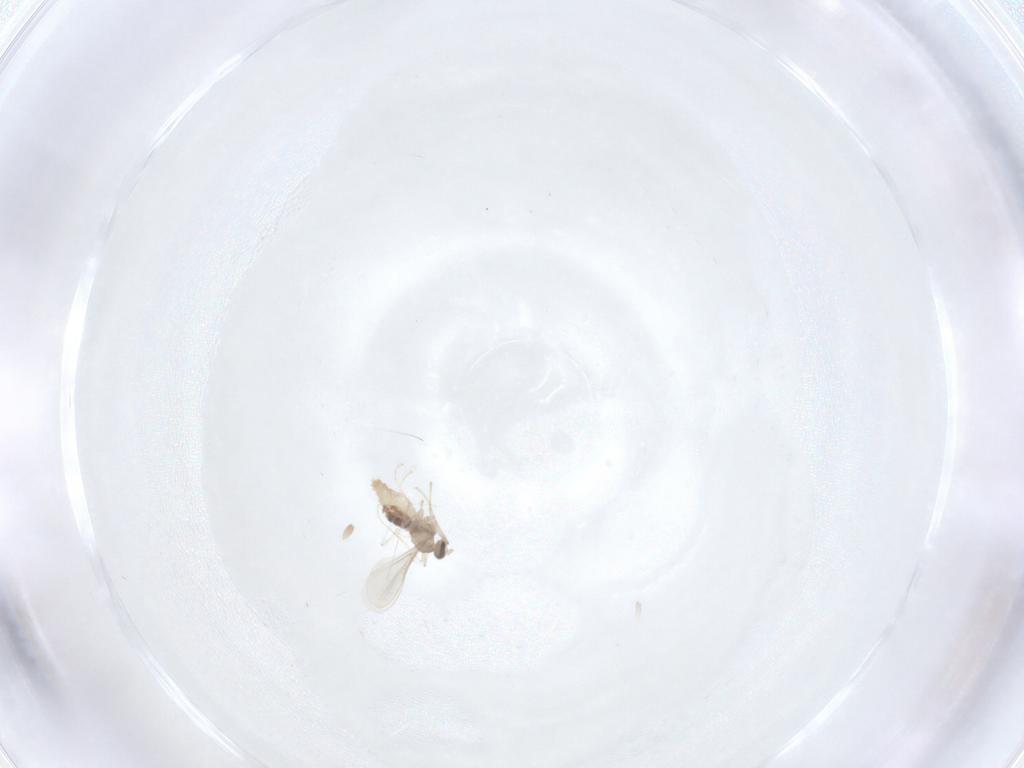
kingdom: Animalia
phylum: Arthropoda
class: Insecta
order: Diptera
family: Cecidomyiidae
